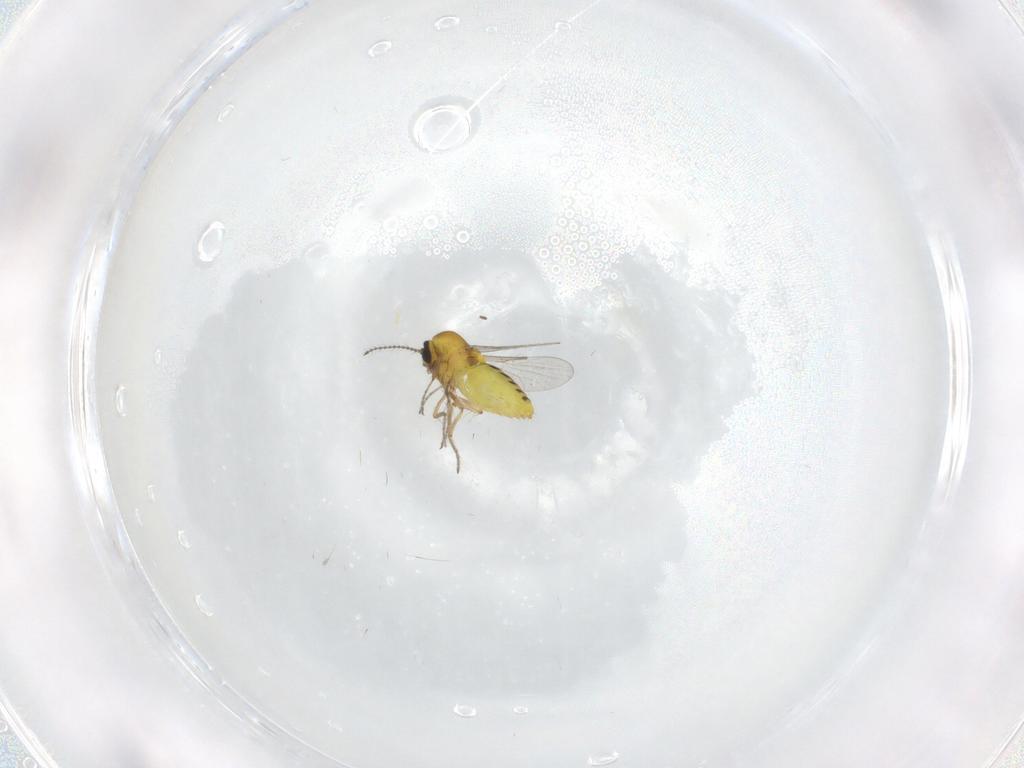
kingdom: Animalia
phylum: Arthropoda
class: Insecta
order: Diptera
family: Ceratopogonidae
